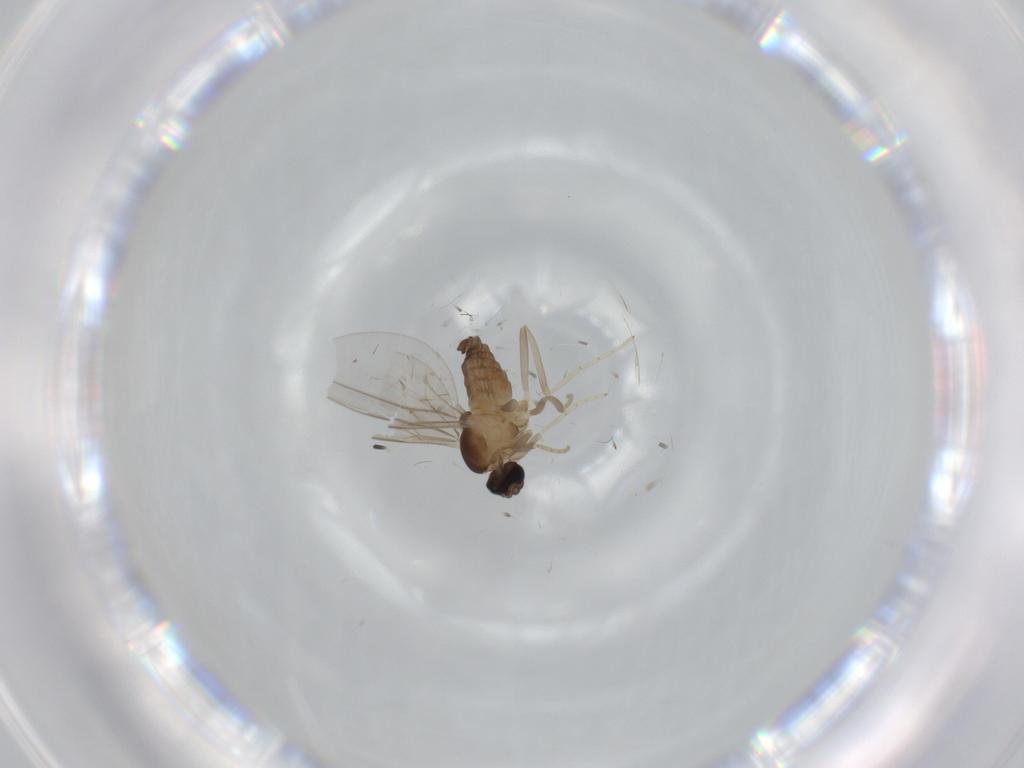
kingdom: Animalia
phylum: Arthropoda
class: Insecta
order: Diptera
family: Cecidomyiidae
